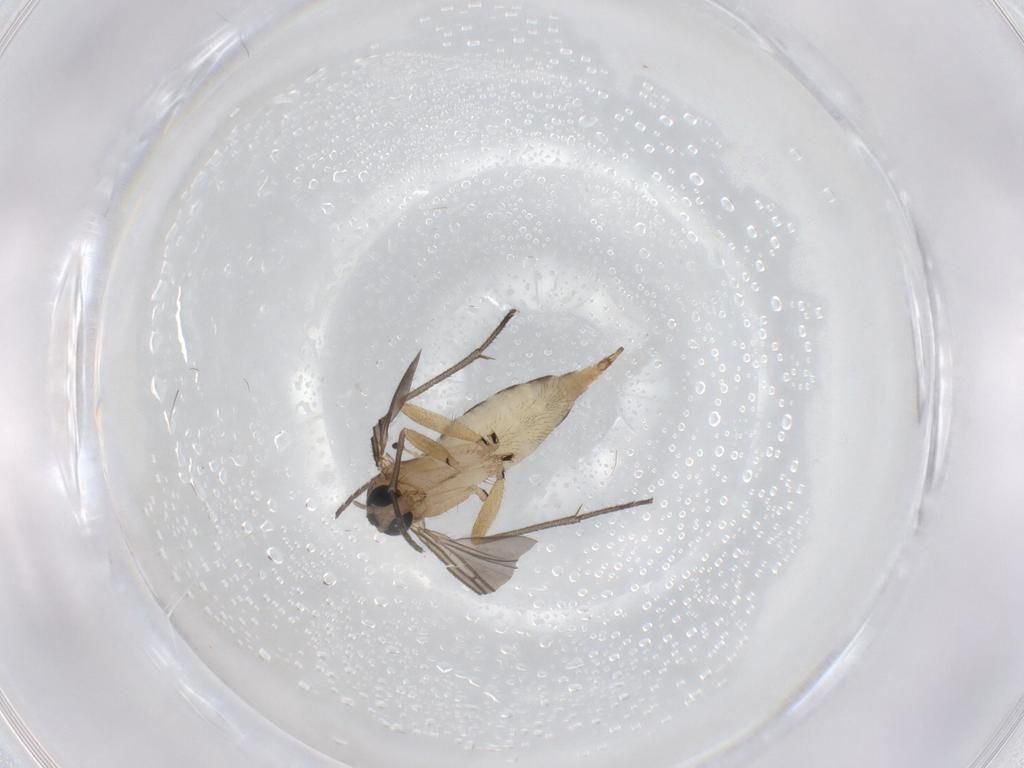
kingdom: Animalia
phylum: Arthropoda
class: Insecta
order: Diptera
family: Sciaridae
